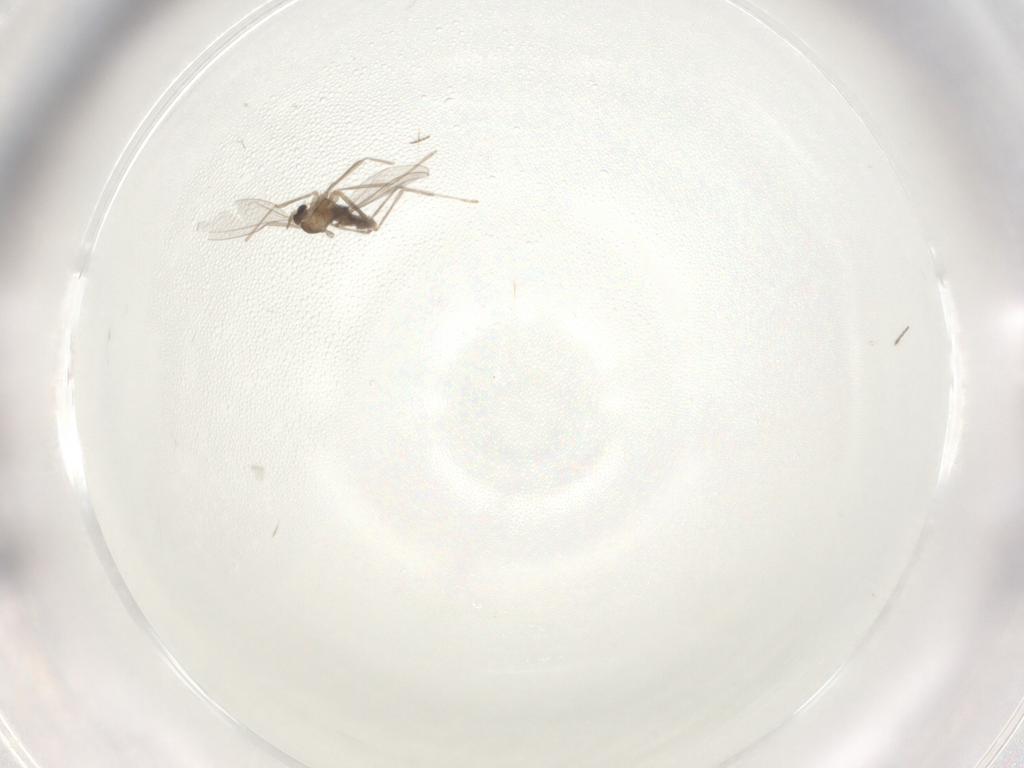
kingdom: Animalia
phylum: Arthropoda
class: Insecta
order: Diptera
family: Cecidomyiidae
